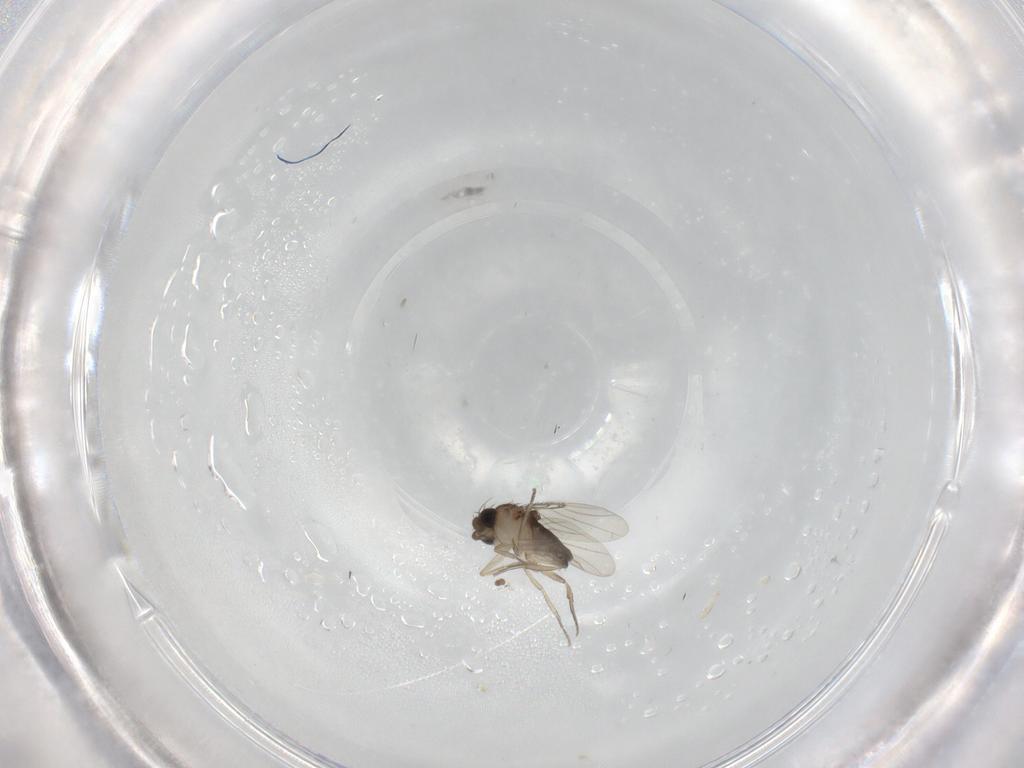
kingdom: Animalia
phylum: Arthropoda
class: Insecta
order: Diptera
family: Phoridae
